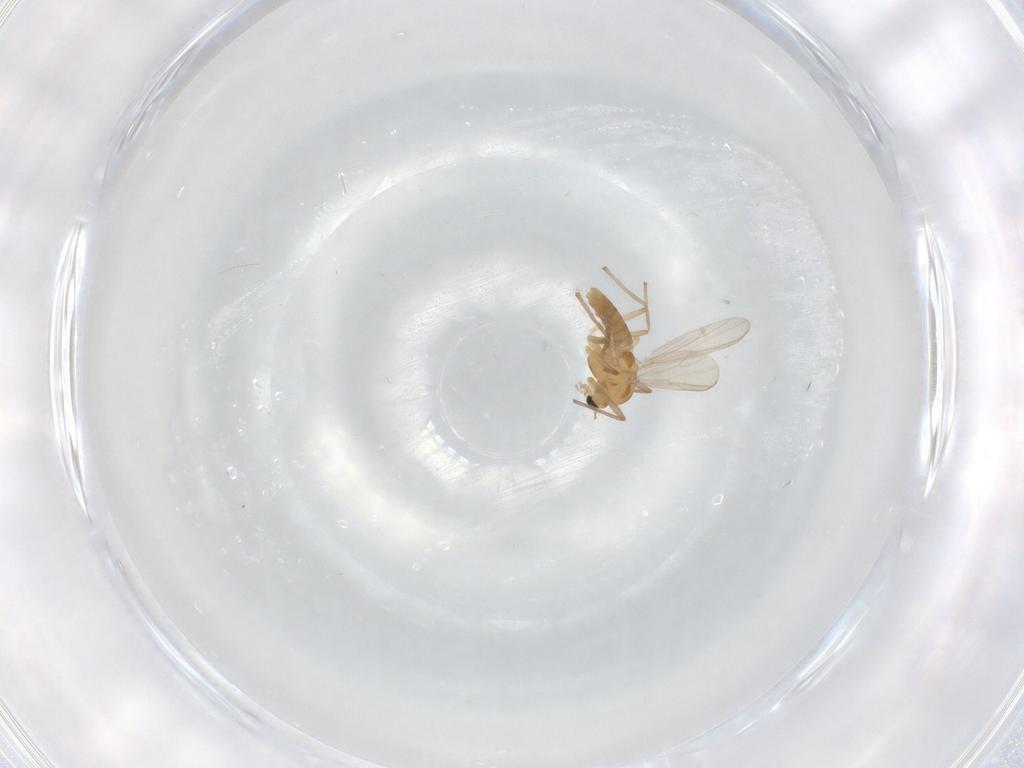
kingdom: Animalia
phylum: Arthropoda
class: Insecta
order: Diptera
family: Chironomidae
